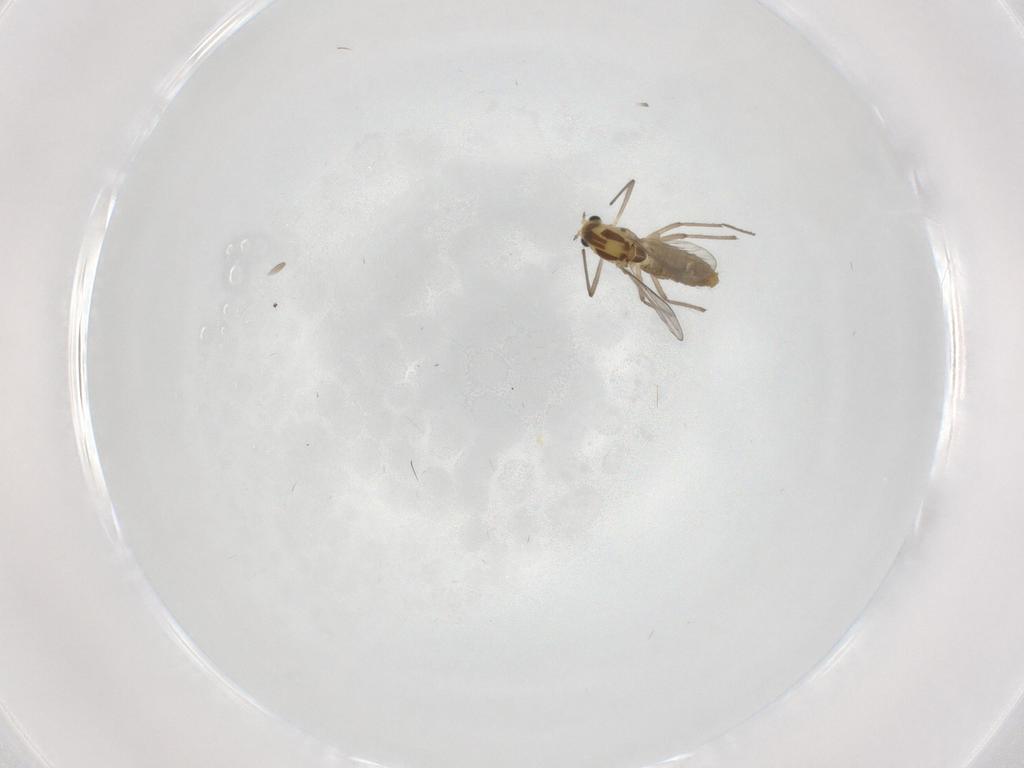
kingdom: Animalia
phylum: Arthropoda
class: Insecta
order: Diptera
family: Chironomidae
